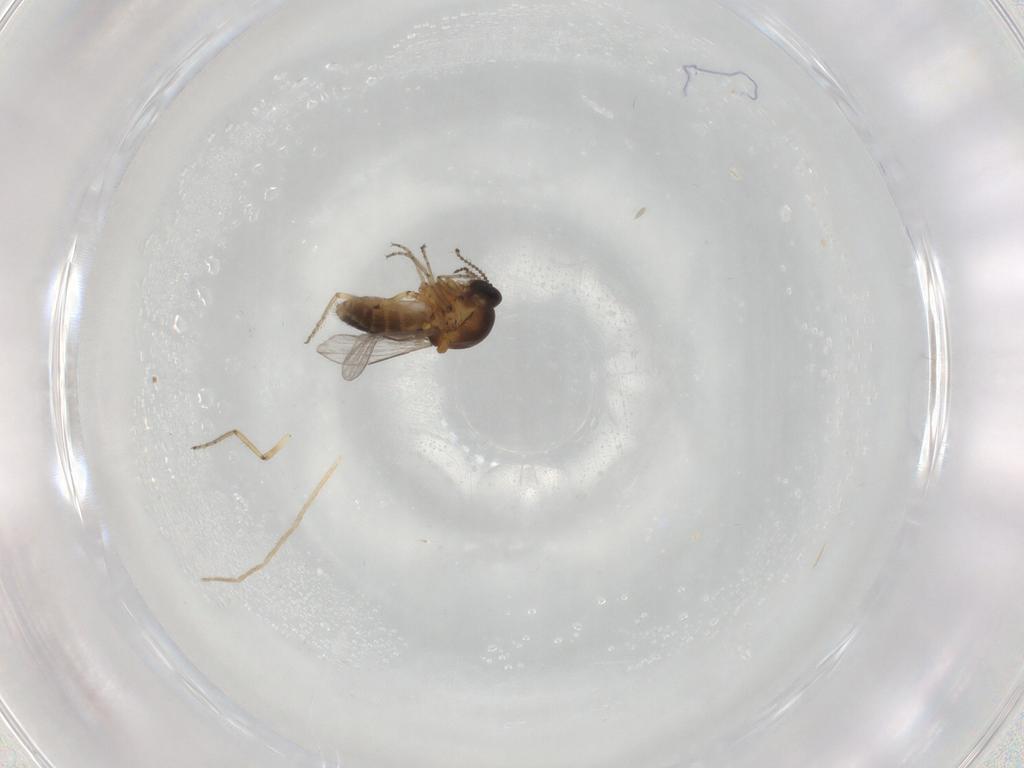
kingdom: Animalia
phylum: Arthropoda
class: Insecta
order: Diptera
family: Ceratopogonidae
